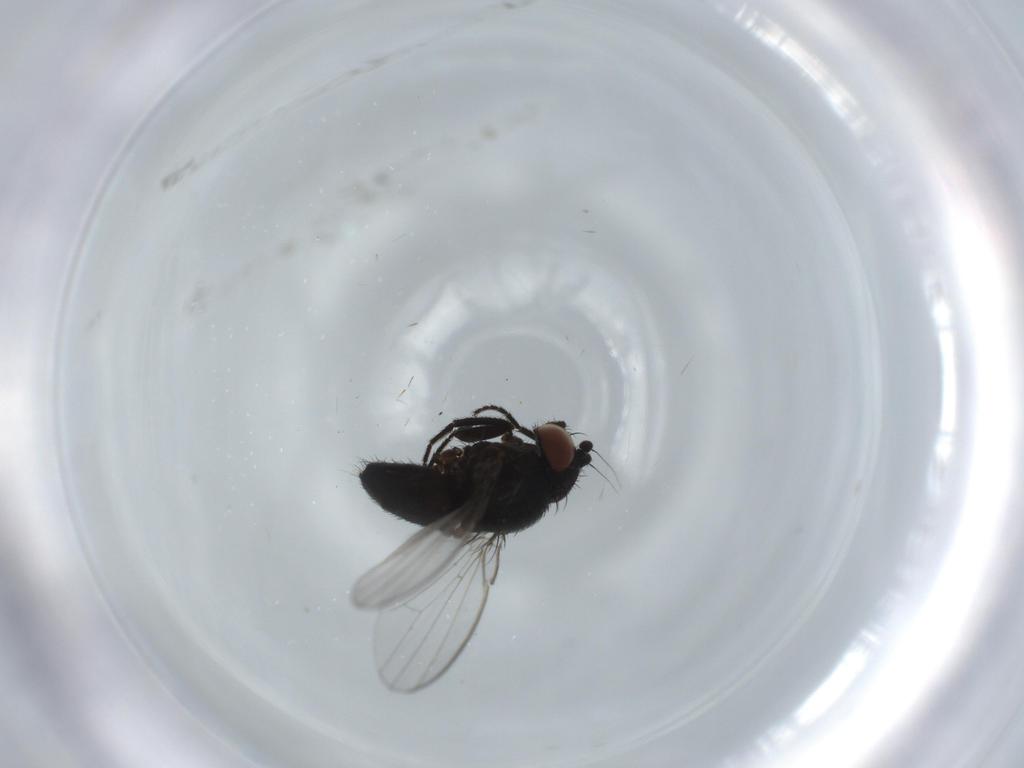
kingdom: Animalia
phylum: Arthropoda
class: Insecta
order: Diptera
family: Milichiidae
